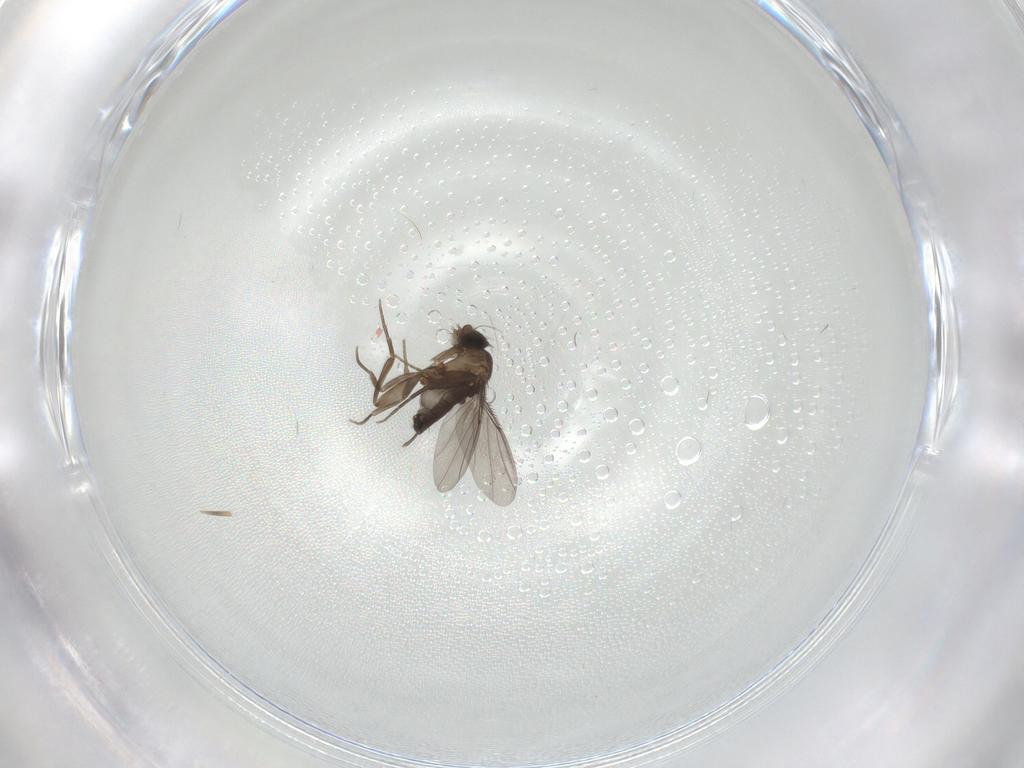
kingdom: Animalia
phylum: Arthropoda
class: Insecta
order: Diptera
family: Phoridae
